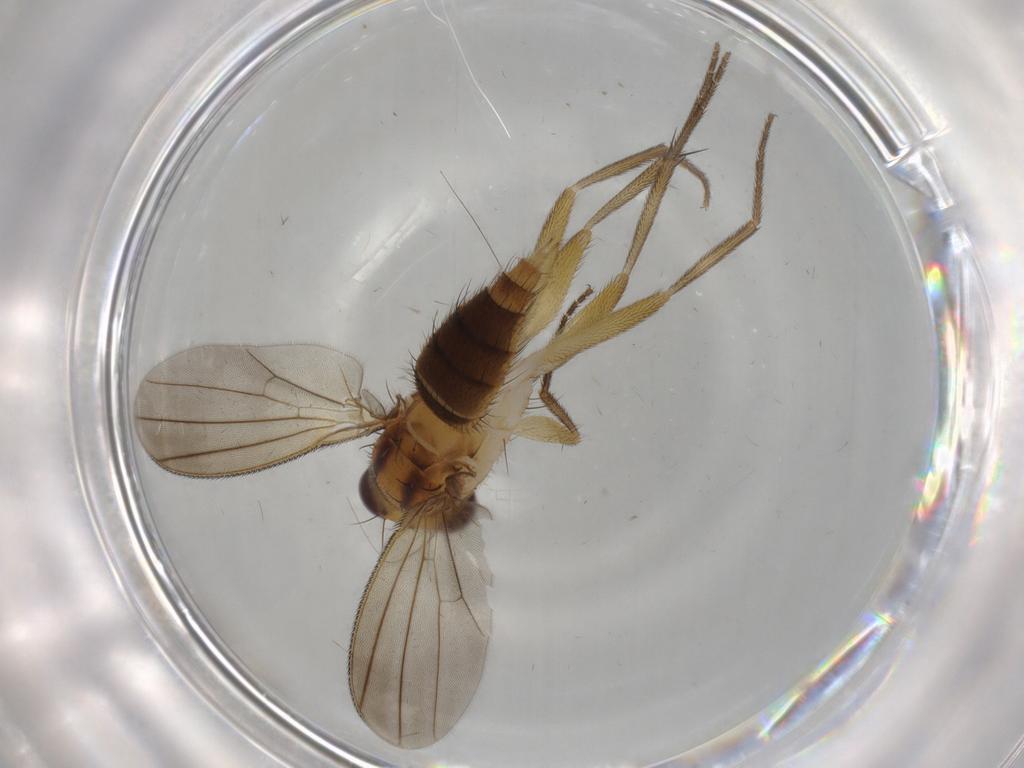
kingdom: Animalia
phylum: Arthropoda
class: Insecta
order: Diptera
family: Clusiidae
